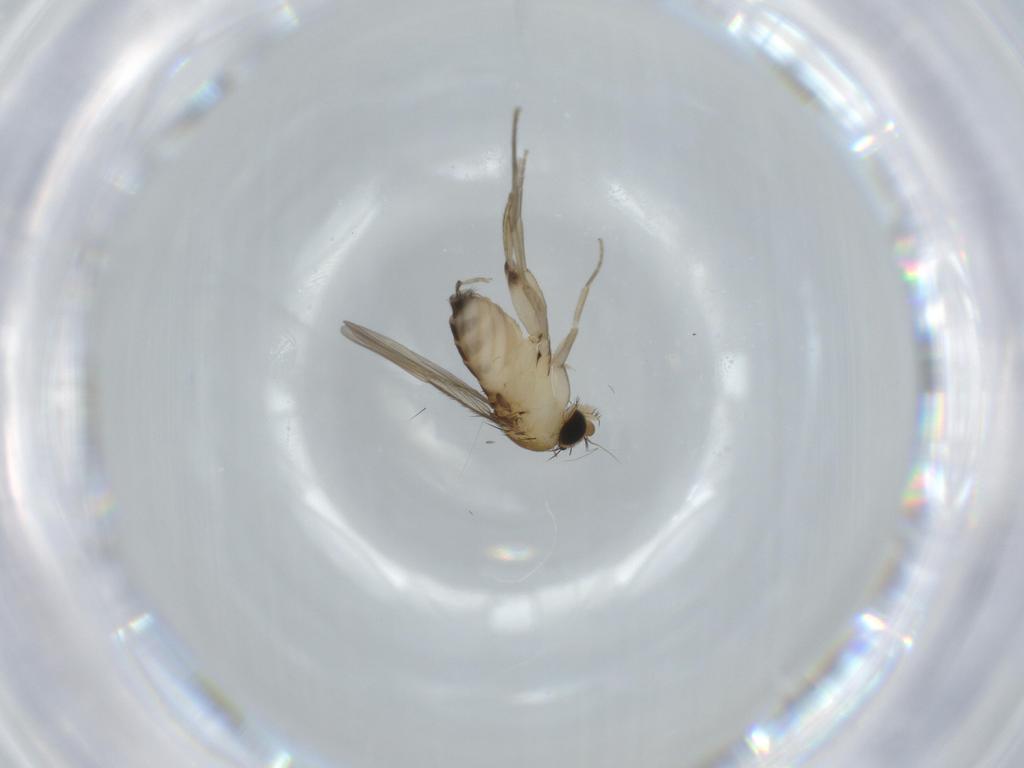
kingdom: Animalia
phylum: Arthropoda
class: Insecta
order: Diptera
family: Phoridae
